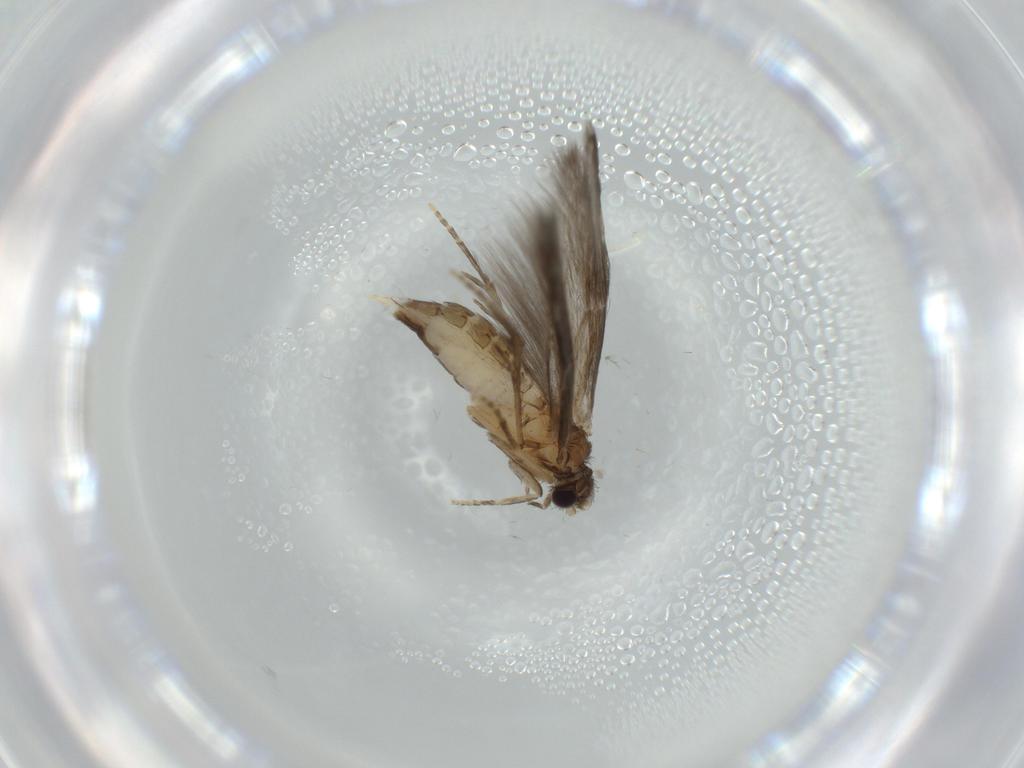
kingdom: Animalia
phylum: Arthropoda
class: Insecta
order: Trichoptera
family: Hydroptilidae
